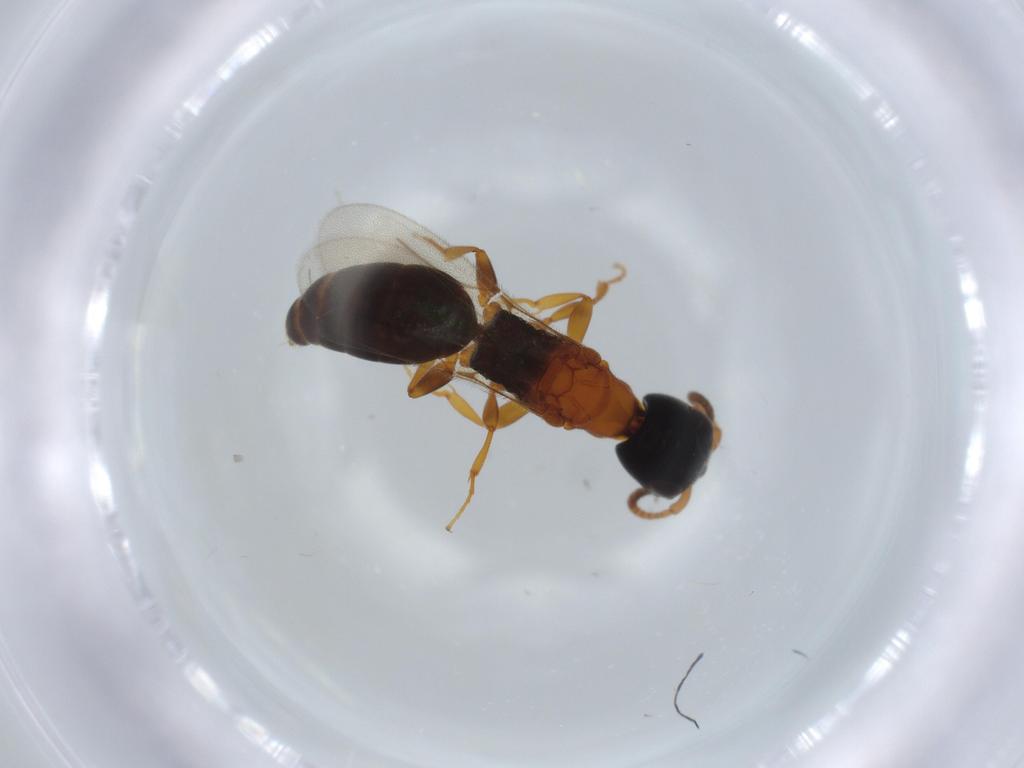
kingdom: Animalia
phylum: Arthropoda
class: Insecta
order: Hymenoptera
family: Bethylidae
